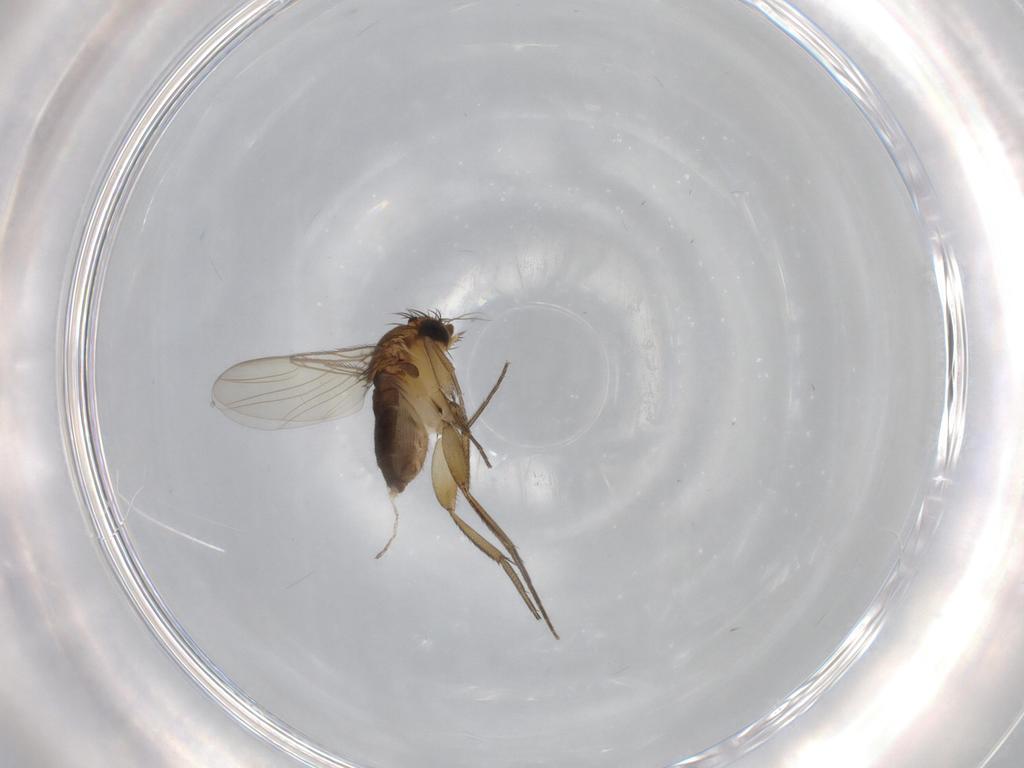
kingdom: Animalia
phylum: Arthropoda
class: Insecta
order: Diptera
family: Phoridae
